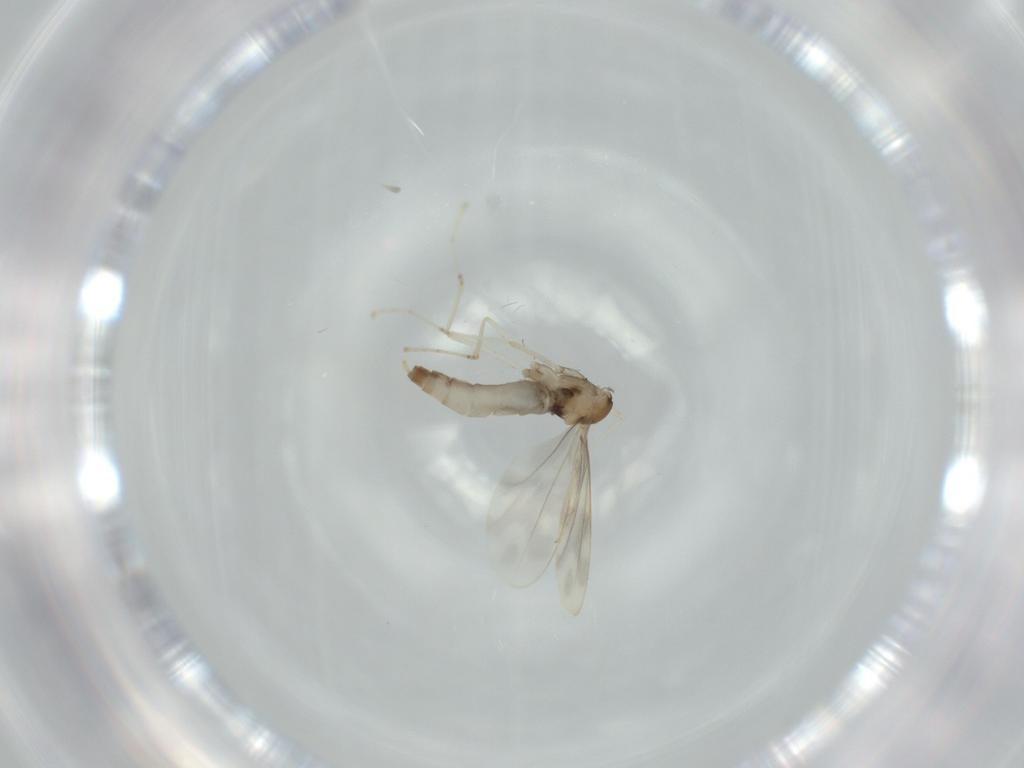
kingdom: Animalia
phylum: Arthropoda
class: Insecta
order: Diptera
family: Cecidomyiidae
